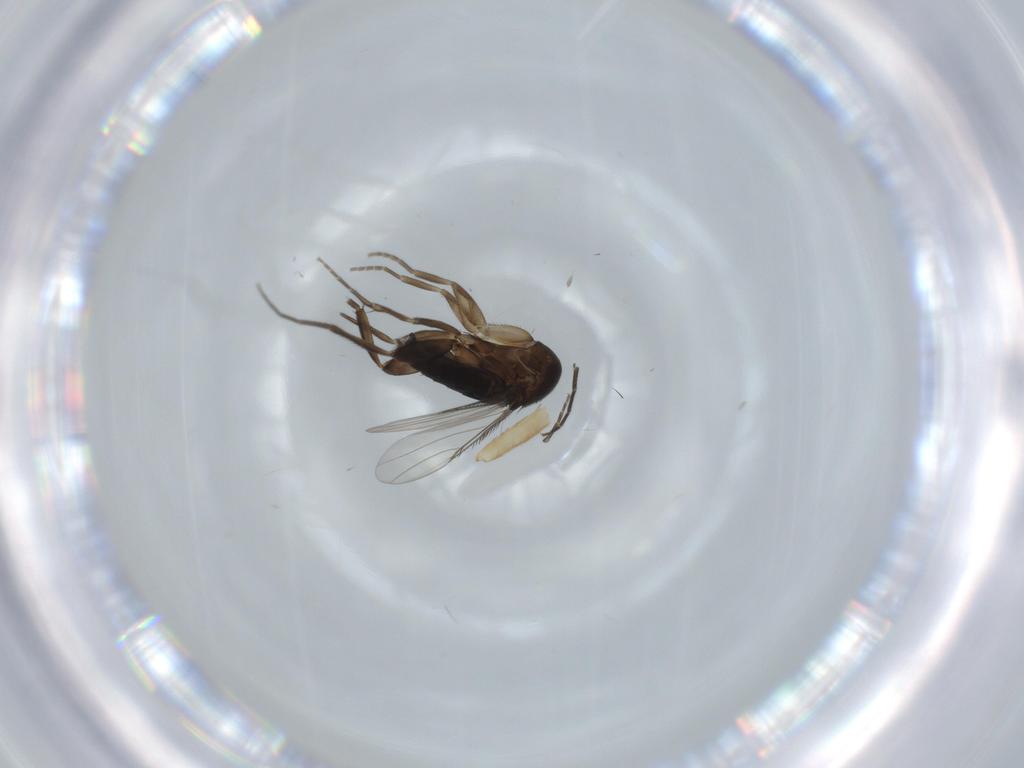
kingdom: Animalia
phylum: Arthropoda
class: Insecta
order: Diptera
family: Phoridae
